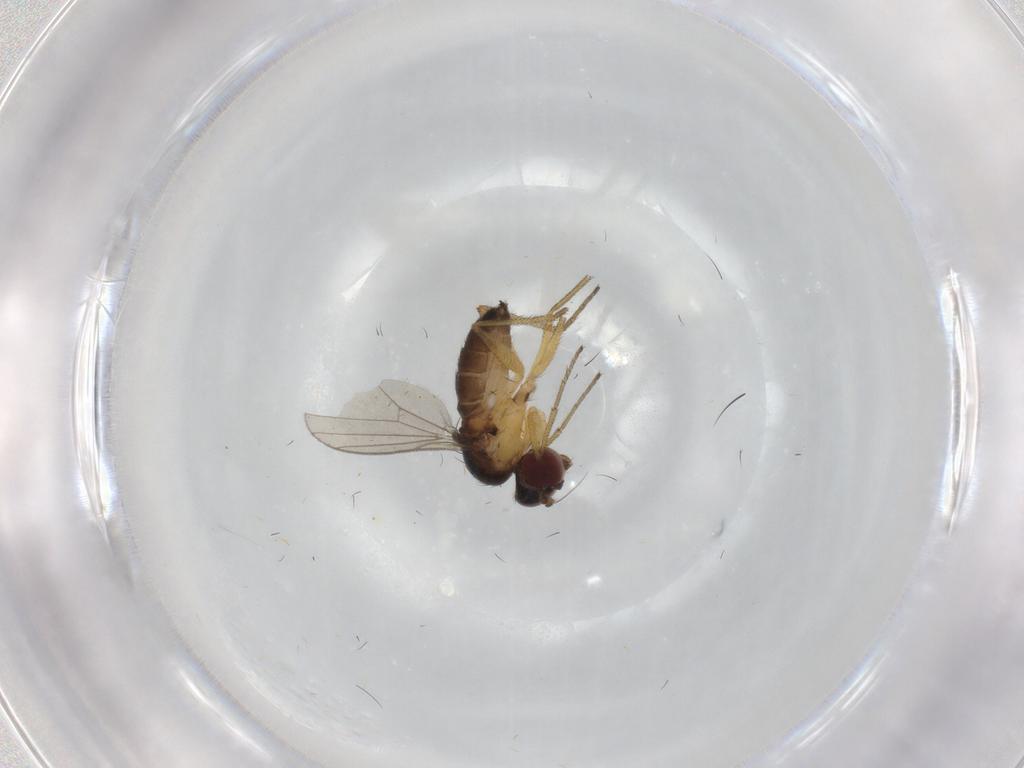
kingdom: Animalia
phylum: Arthropoda
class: Insecta
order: Diptera
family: Dolichopodidae
